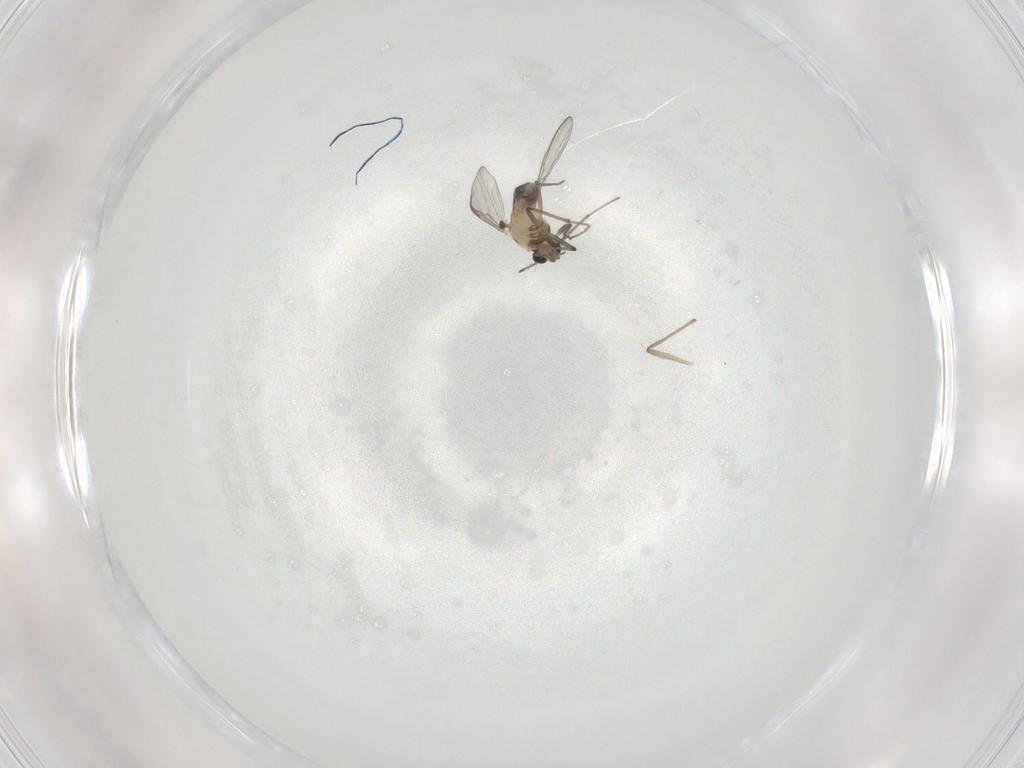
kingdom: Animalia
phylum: Arthropoda
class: Insecta
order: Diptera
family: Chironomidae
